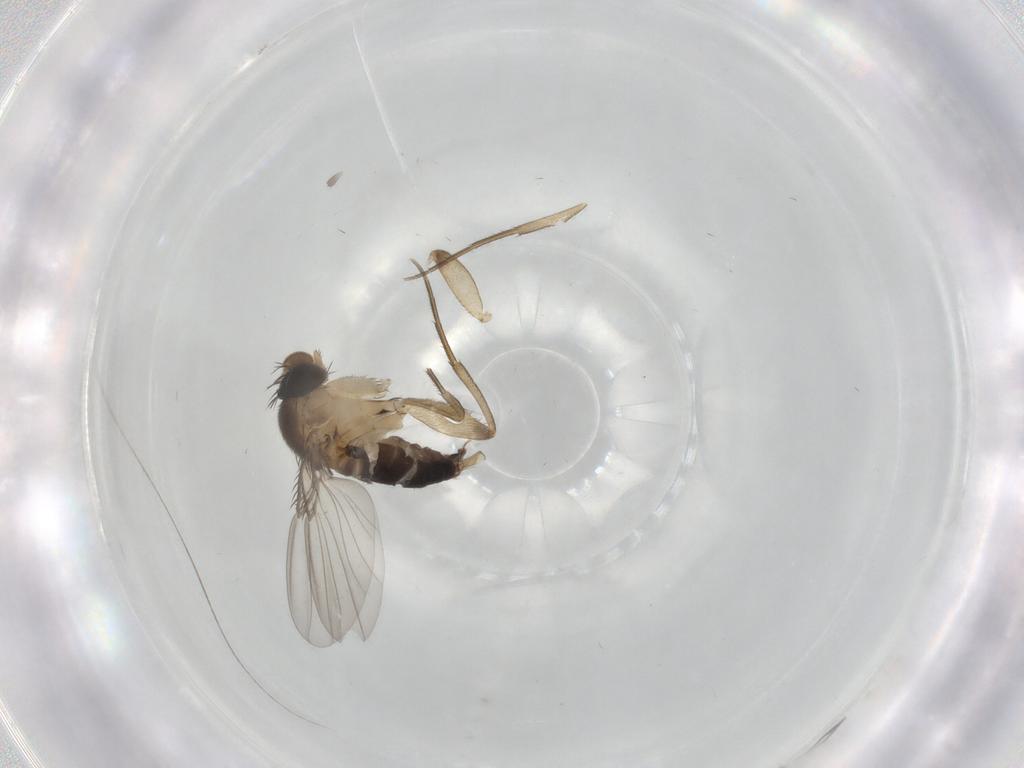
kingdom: Animalia
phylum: Arthropoda
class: Insecta
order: Diptera
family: Phoridae
